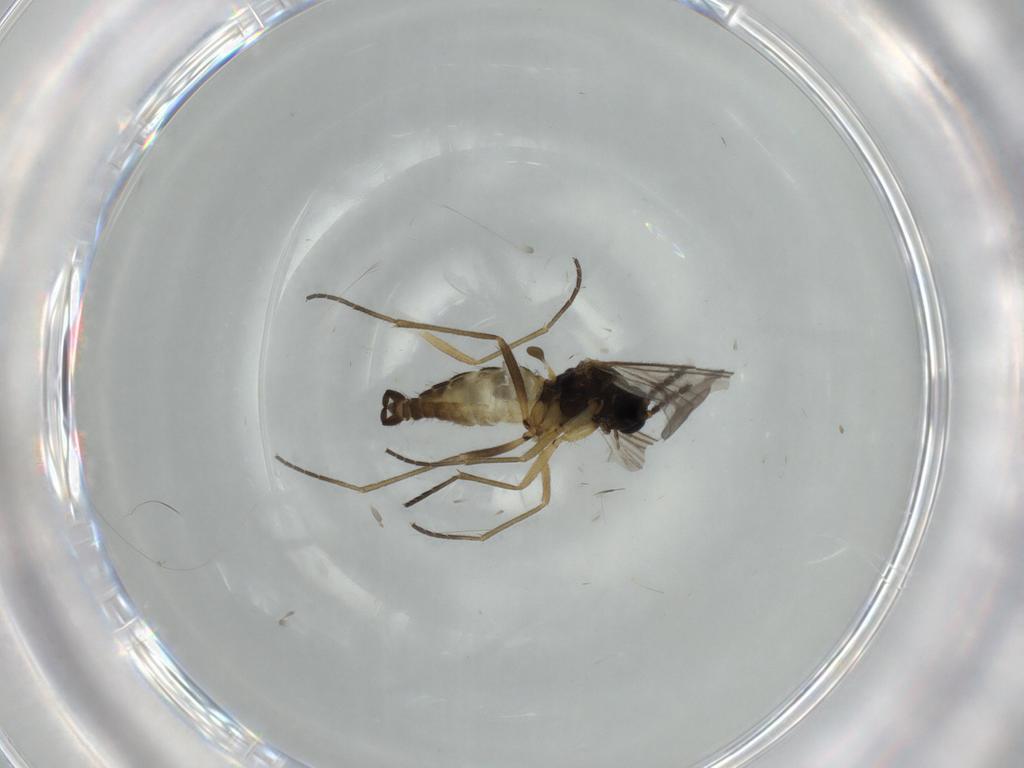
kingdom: Animalia
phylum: Arthropoda
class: Insecta
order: Diptera
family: Sciaridae
